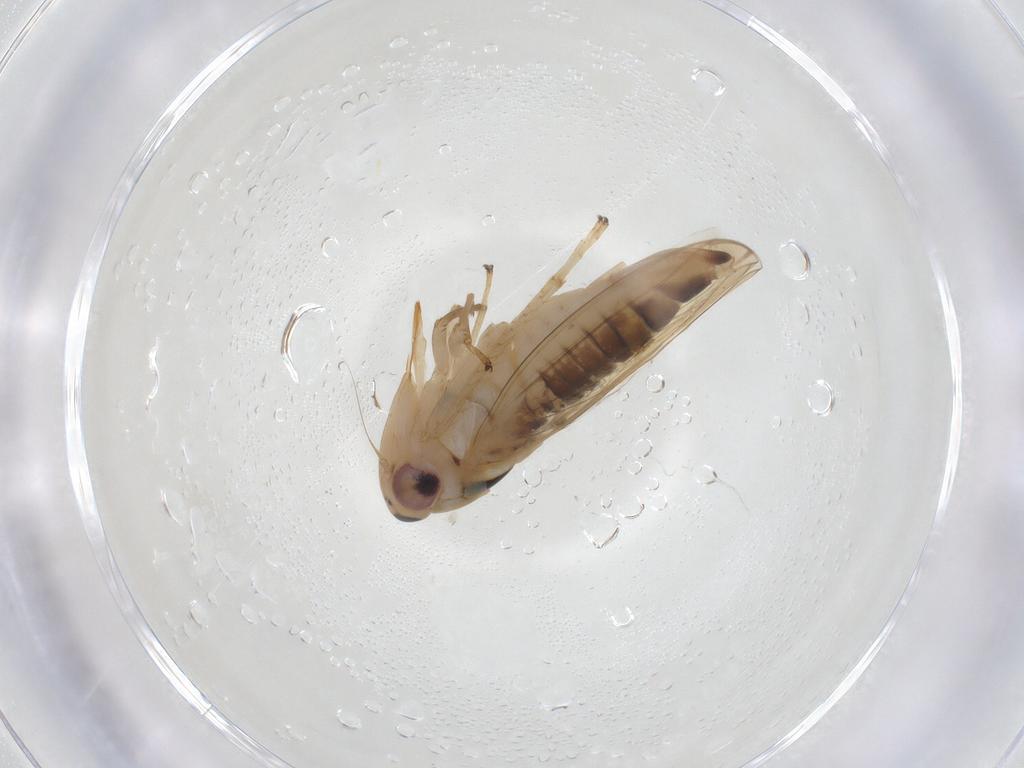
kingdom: Animalia
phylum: Arthropoda
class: Insecta
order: Hemiptera
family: Cicadellidae
